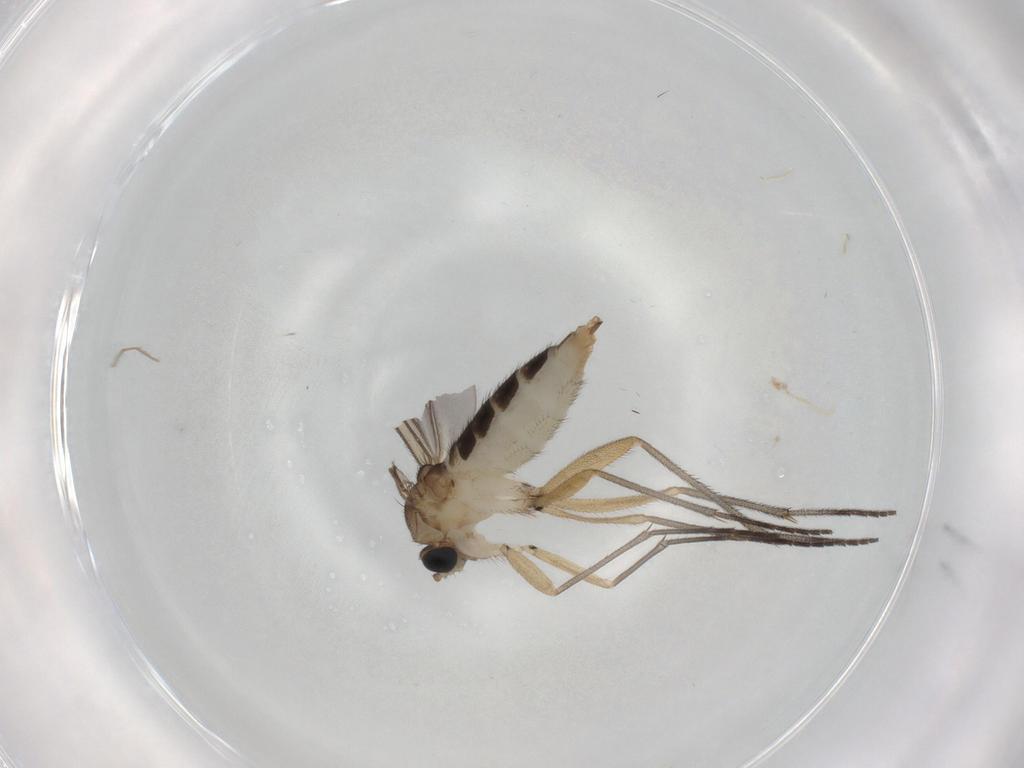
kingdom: Animalia
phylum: Arthropoda
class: Insecta
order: Diptera
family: Sciaridae
